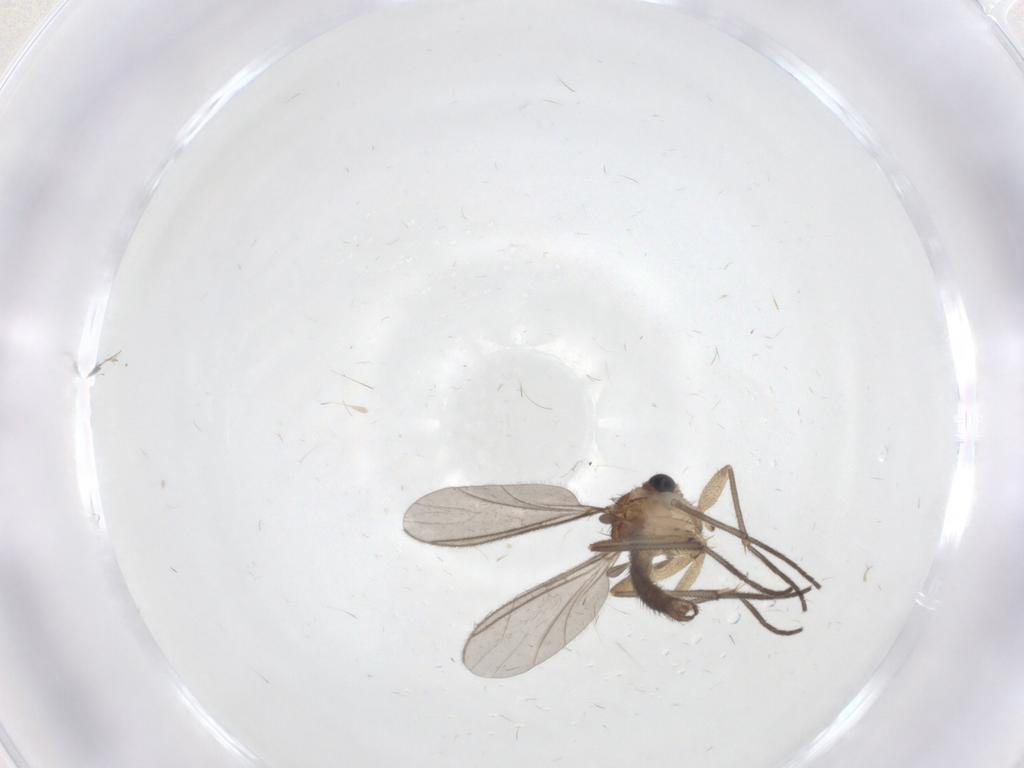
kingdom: Animalia
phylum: Arthropoda
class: Insecta
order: Diptera
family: Sciaridae
